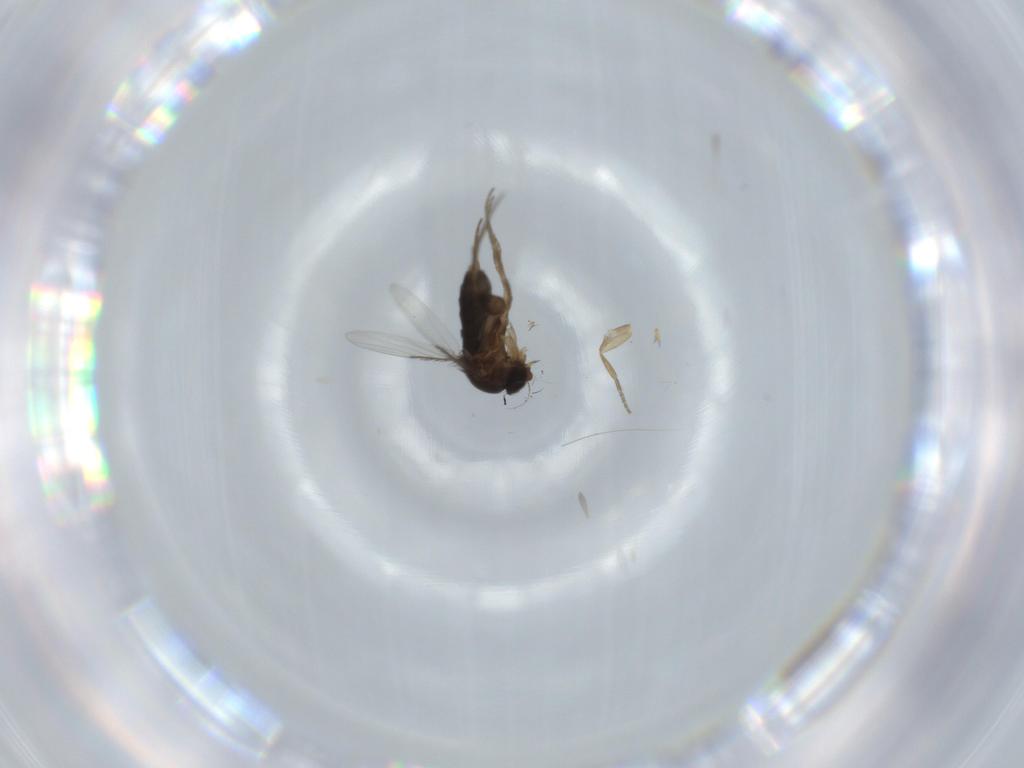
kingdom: Animalia
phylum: Arthropoda
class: Insecta
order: Diptera
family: Phoridae
